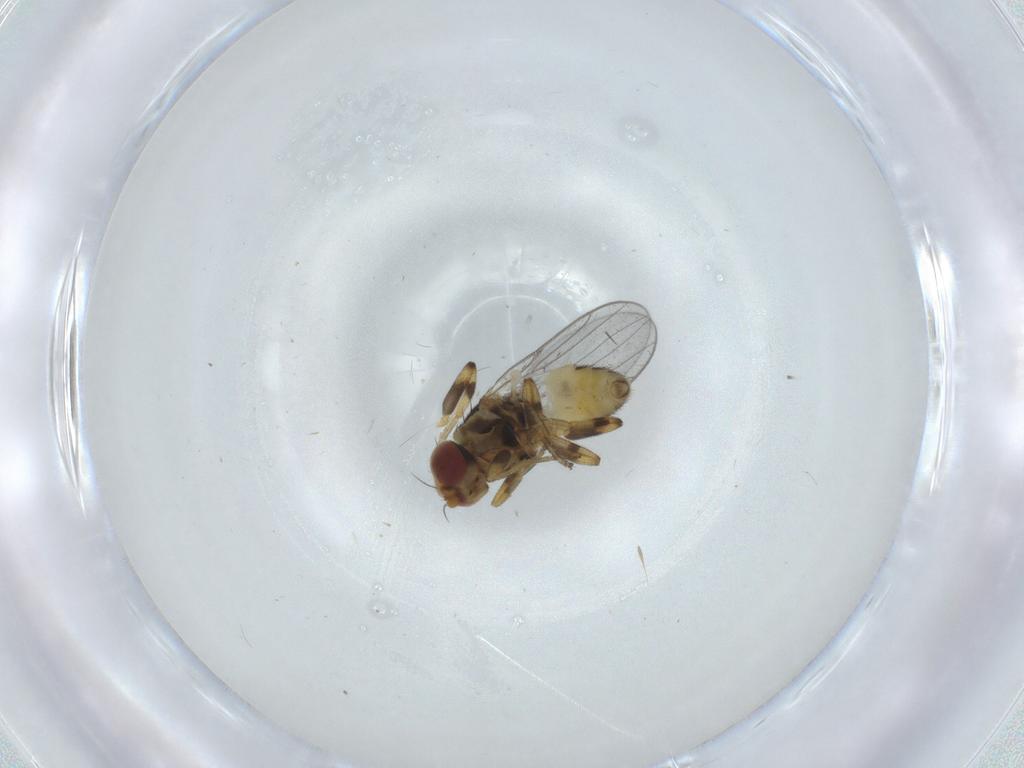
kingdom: Animalia
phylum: Arthropoda
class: Insecta
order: Diptera
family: Chloropidae
